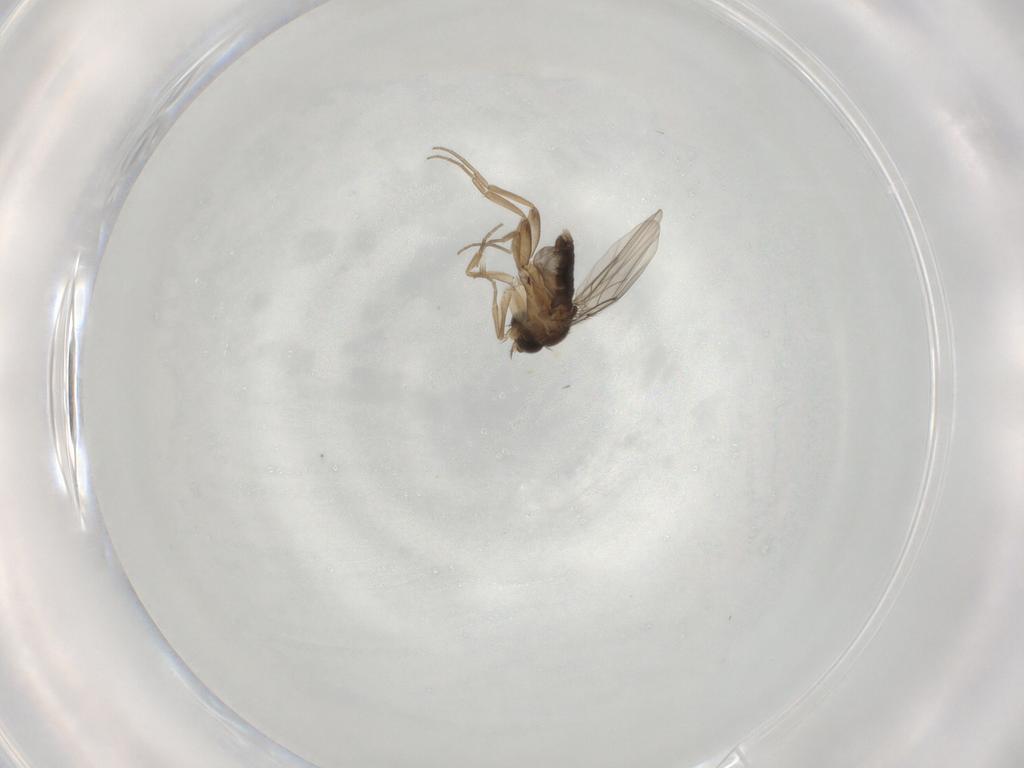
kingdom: Animalia
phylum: Arthropoda
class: Insecta
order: Diptera
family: Phoridae
